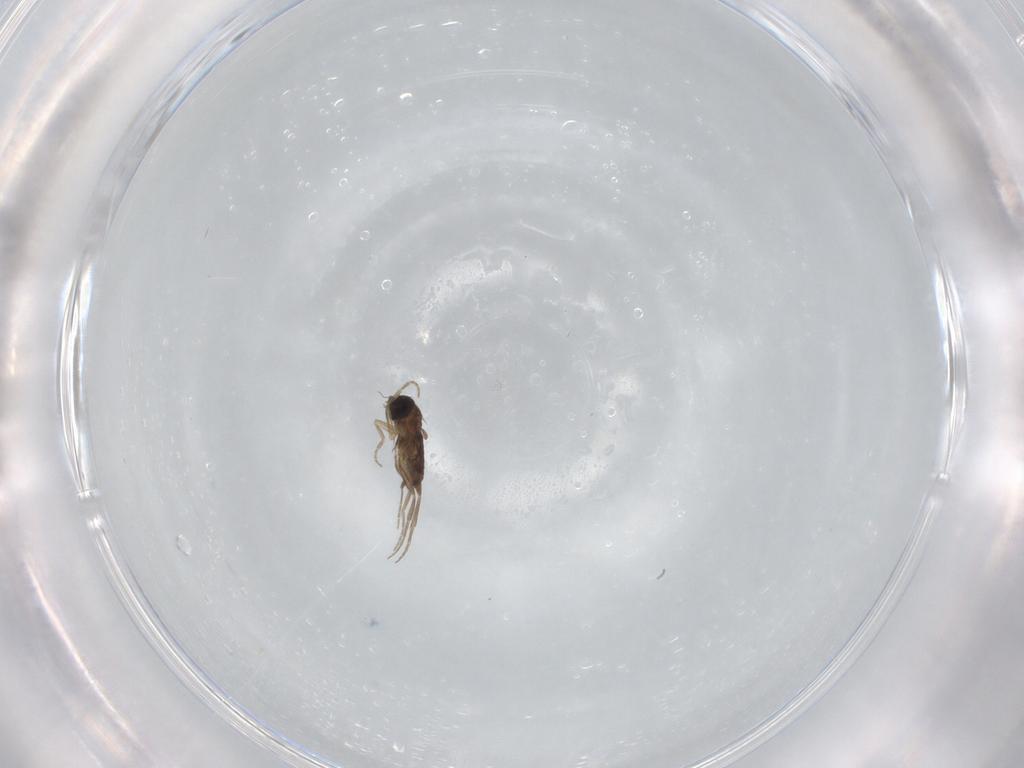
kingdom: Animalia
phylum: Arthropoda
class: Insecta
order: Diptera
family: Phoridae
